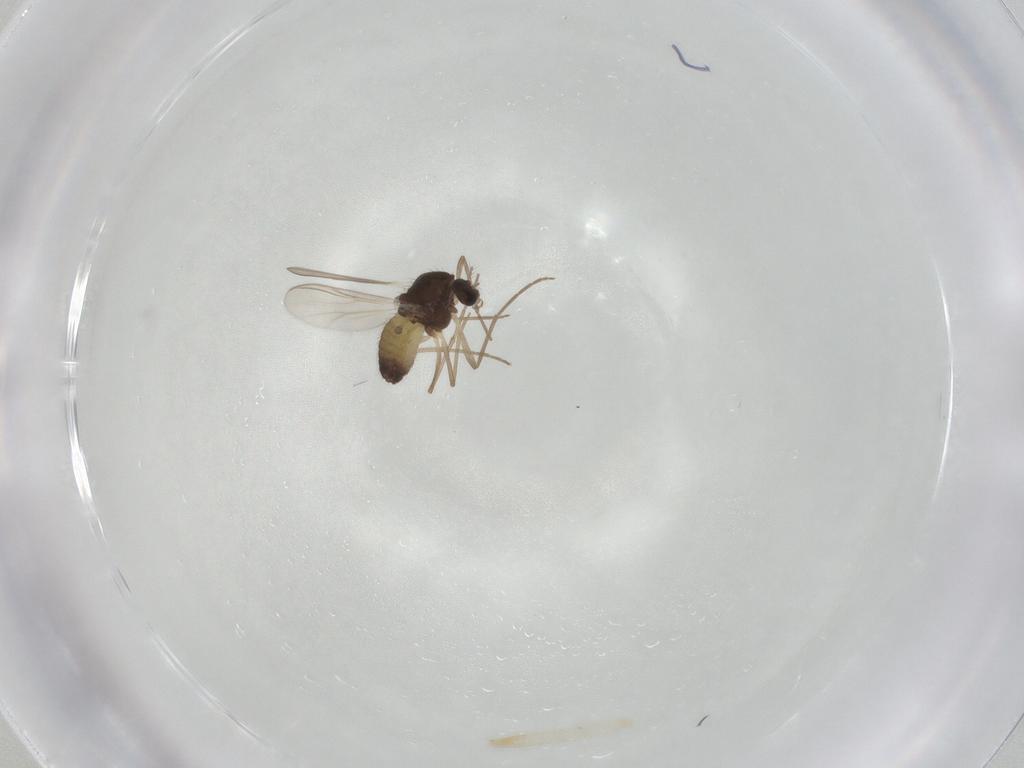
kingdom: Animalia
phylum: Arthropoda
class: Insecta
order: Diptera
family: Chironomidae
